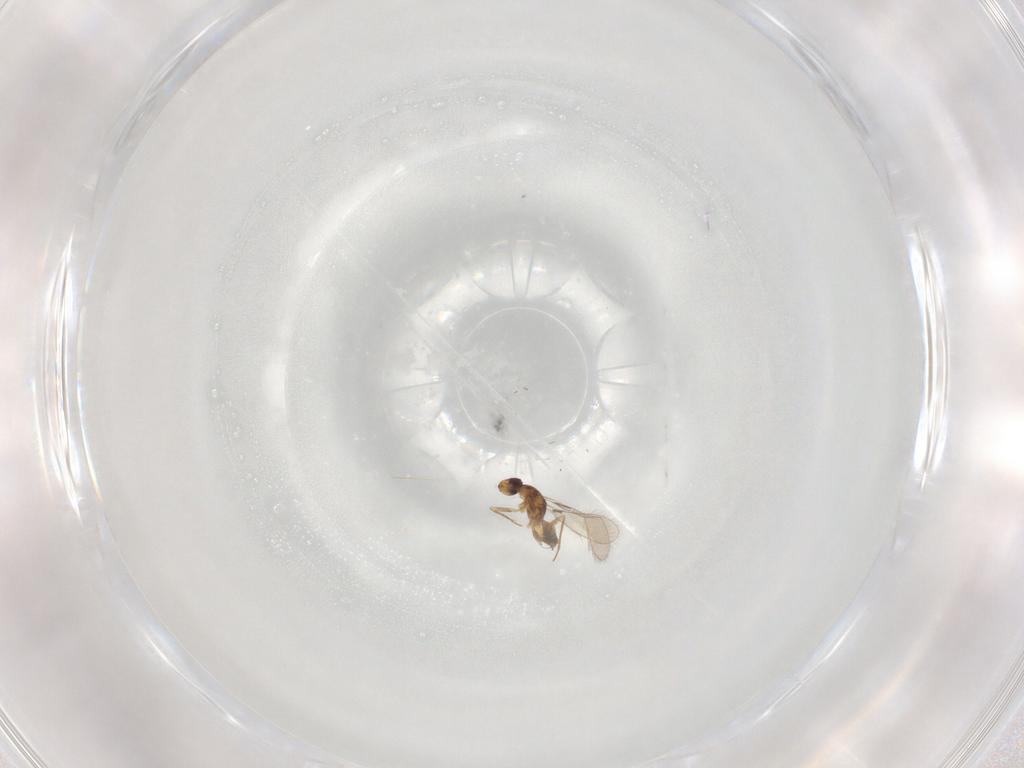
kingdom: Animalia
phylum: Arthropoda
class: Insecta
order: Hymenoptera
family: Mymaridae
